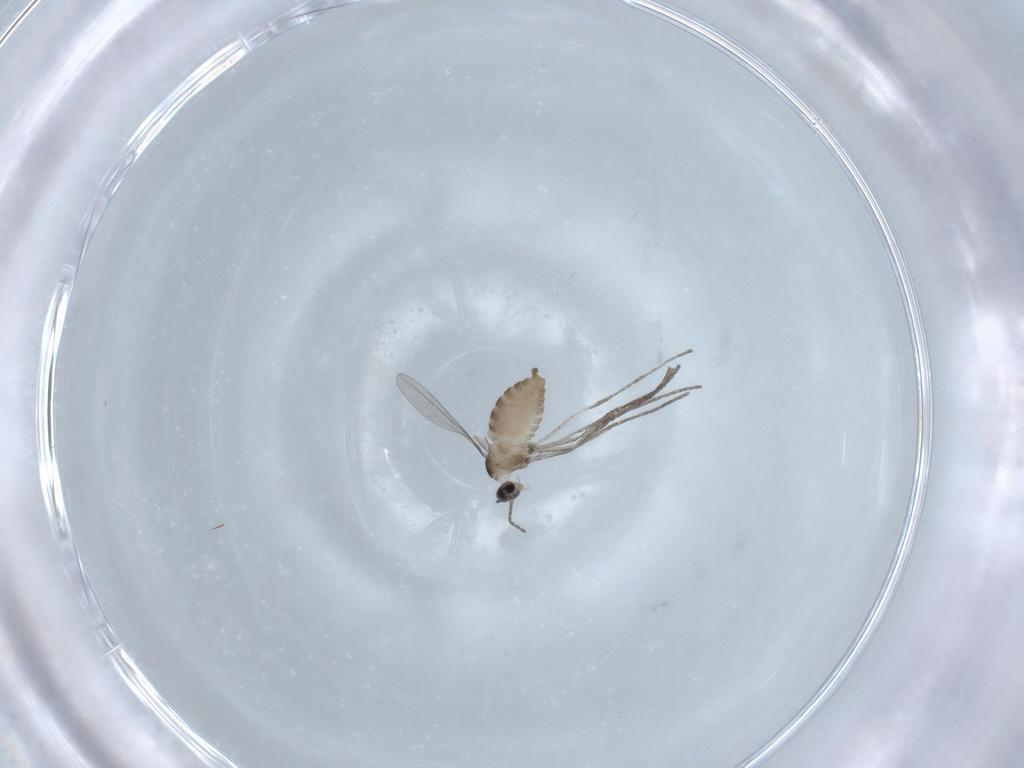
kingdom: Animalia
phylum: Arthropoda
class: Insecta
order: Diptera
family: Cecidomyiidae
